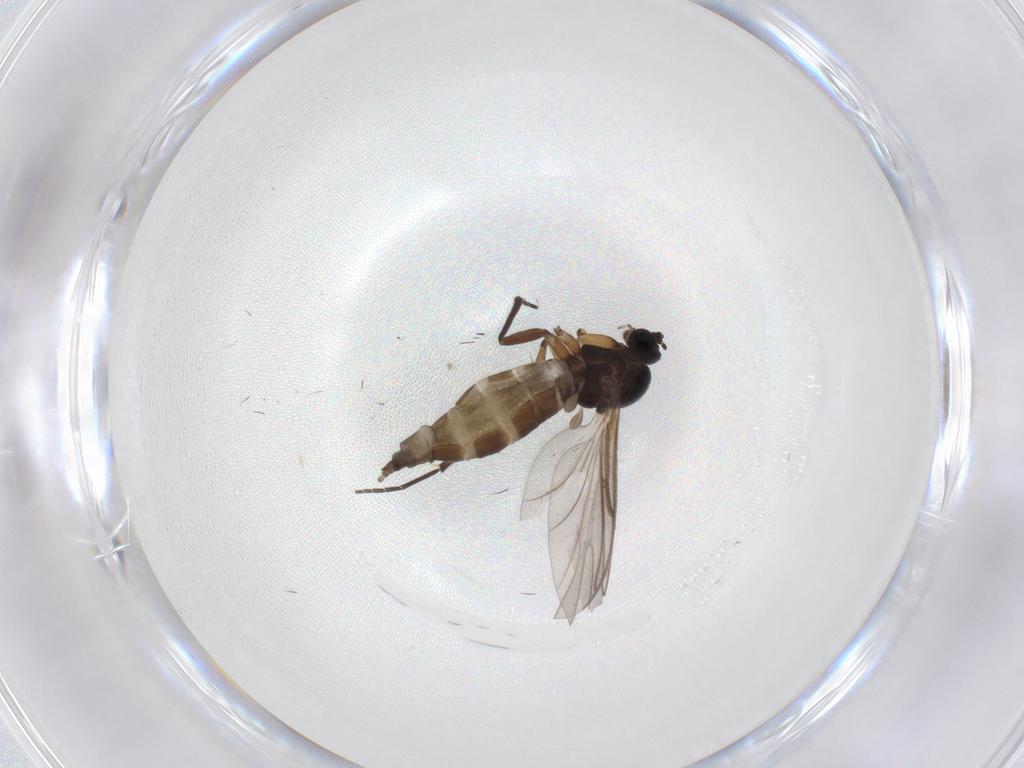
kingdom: Animalia
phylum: Arthropoda
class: Insecta
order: Diptera
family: Sciaridae
